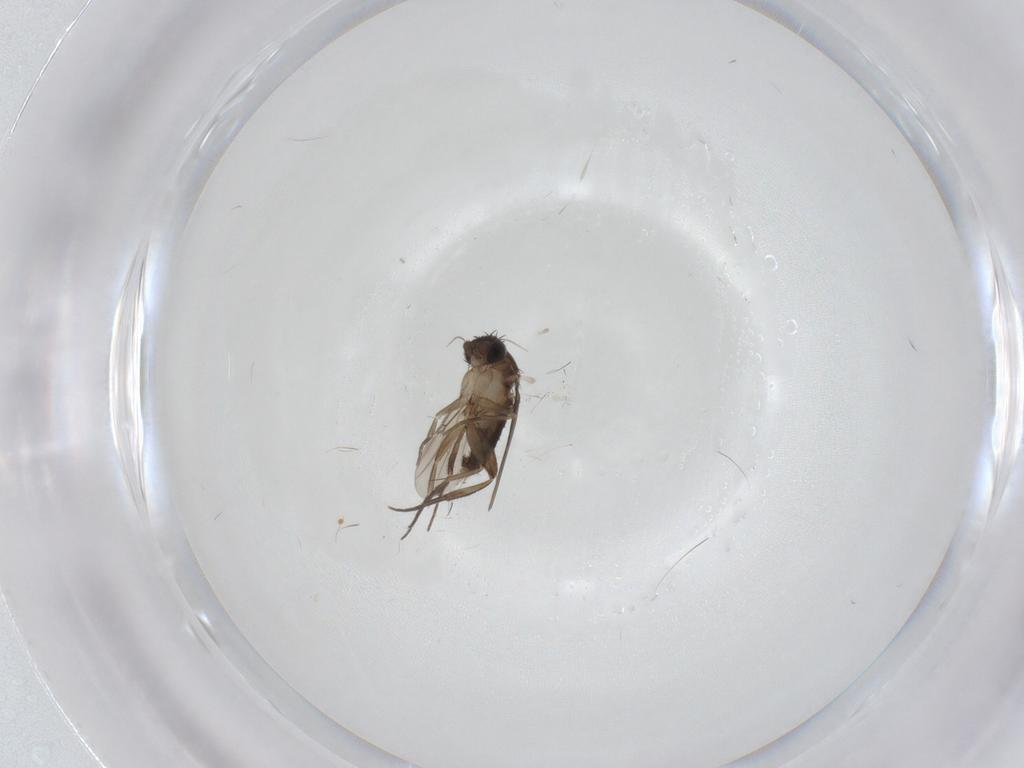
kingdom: Animalia
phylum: Arthropoda
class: Insecta
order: Diptera
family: Phoridae
